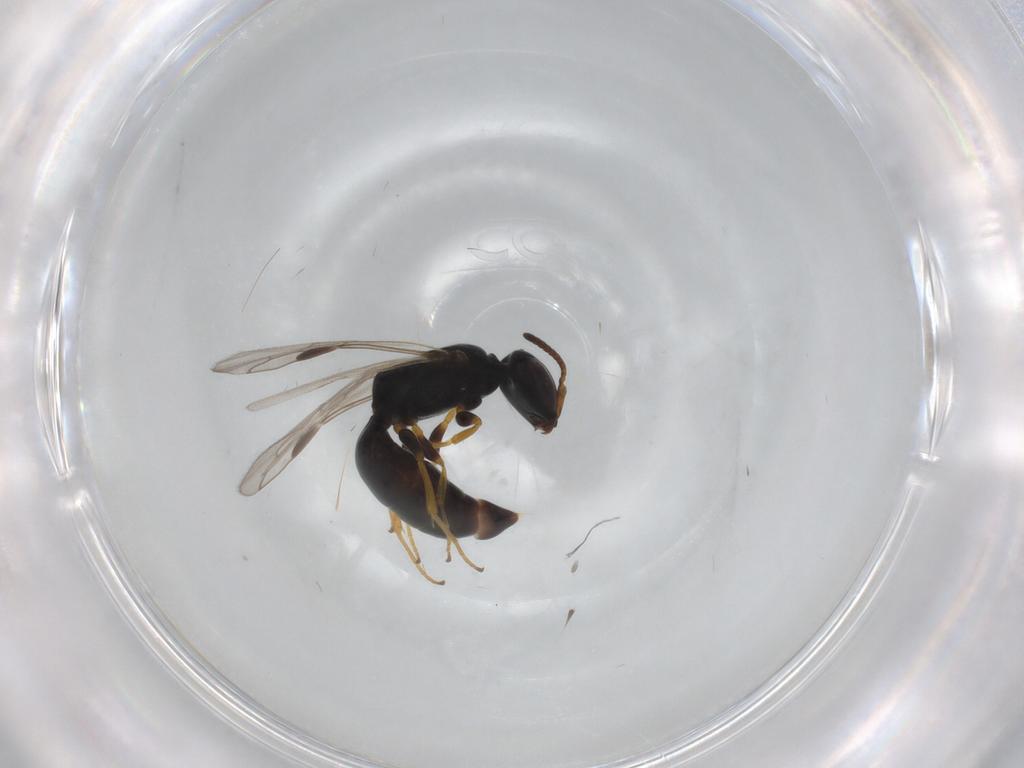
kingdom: Animalia
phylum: Arthropoda
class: Insecta
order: Hymenoptera
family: Crabronidae
